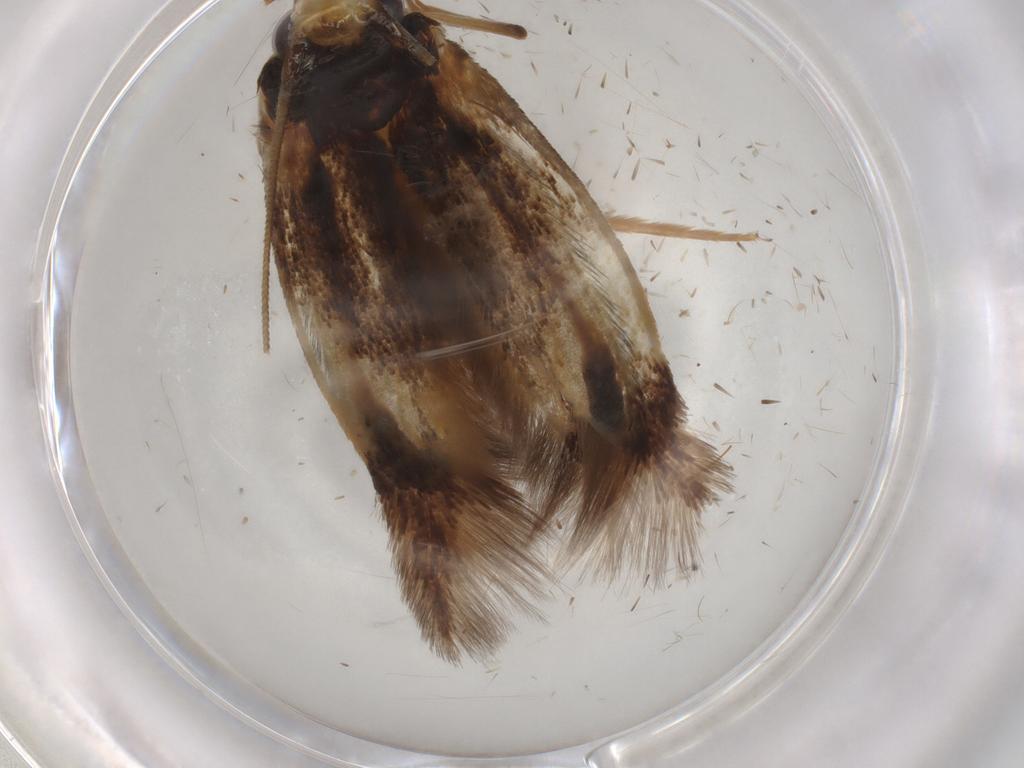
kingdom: Animalia
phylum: Arthropoda
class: Insecta
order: Lepidoptera
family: Tineidae
